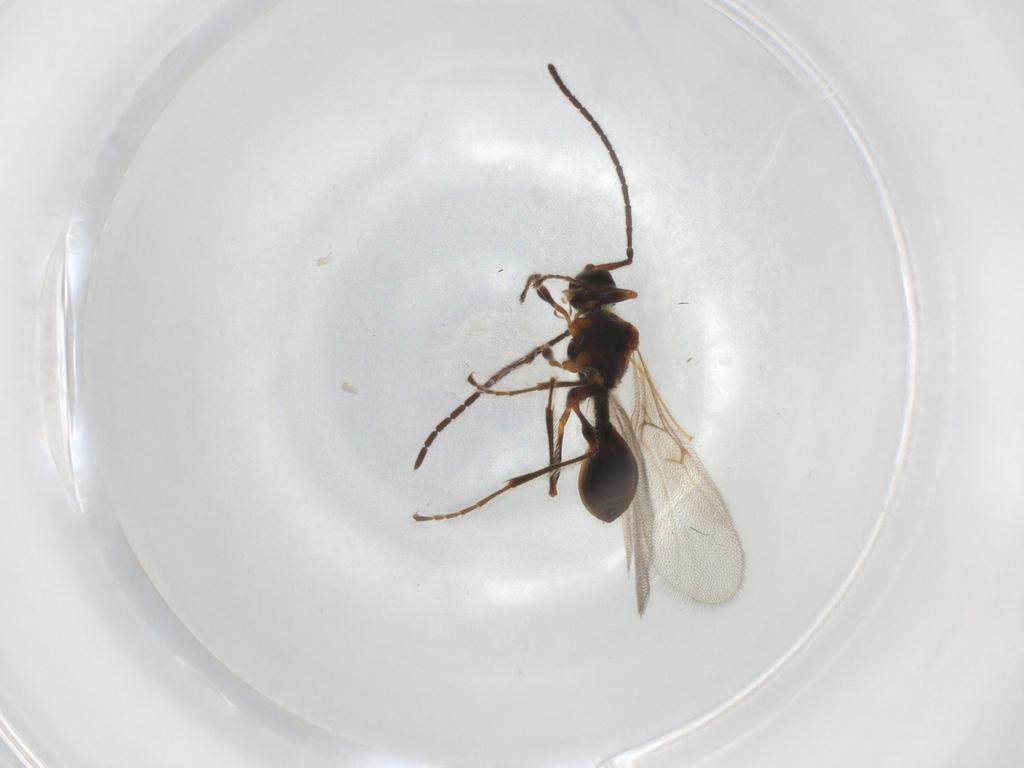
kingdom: Animalia
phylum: Arthropoda
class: Insecta
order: Hymenoptera
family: Diapriidae
